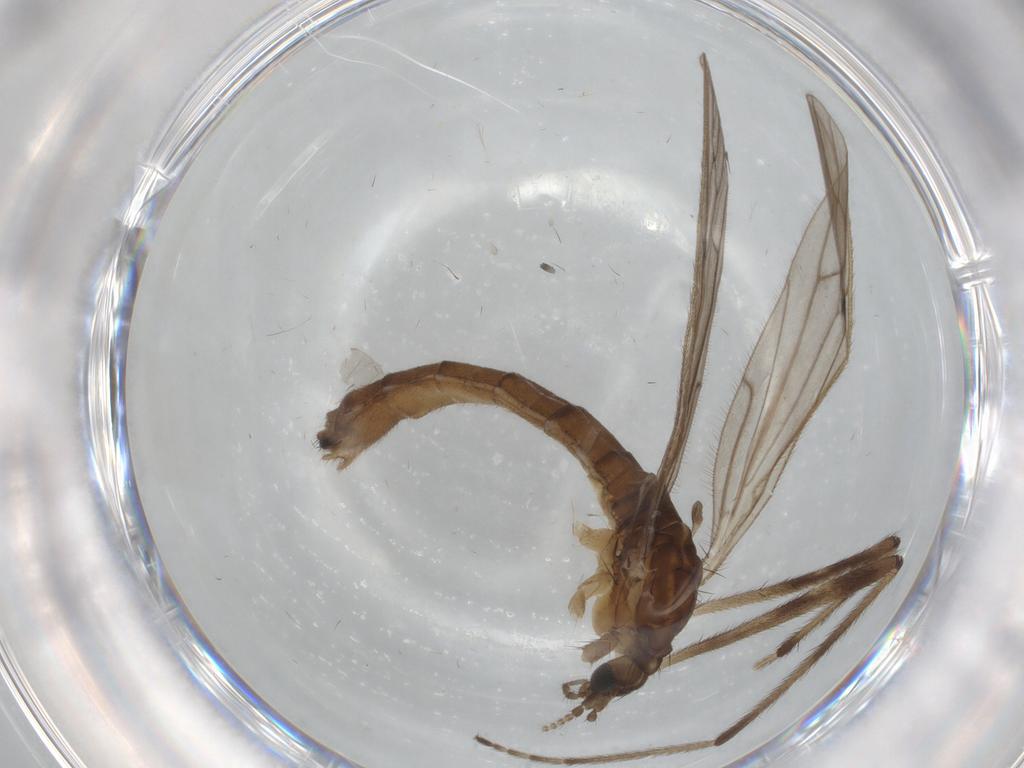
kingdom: Animalia
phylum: Arthropoda
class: Insecta
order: Diptera
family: Limoniidae
